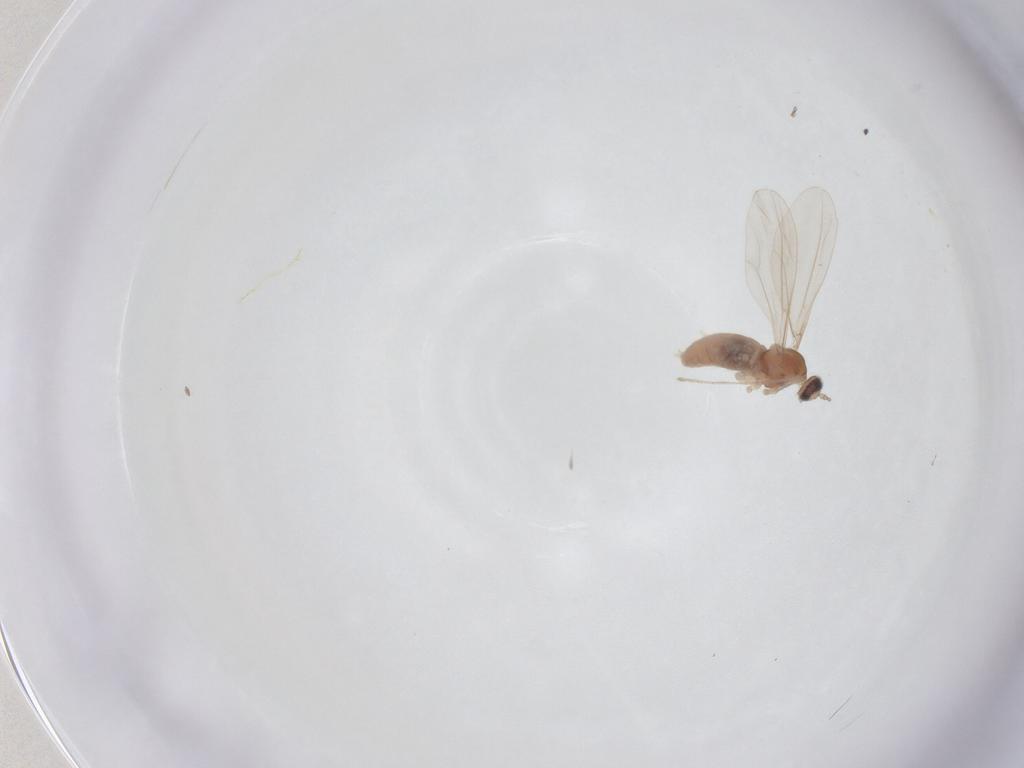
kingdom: Animalia
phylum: Arthropoda
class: Insecta
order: Diptera
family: Cecidomyiidae
